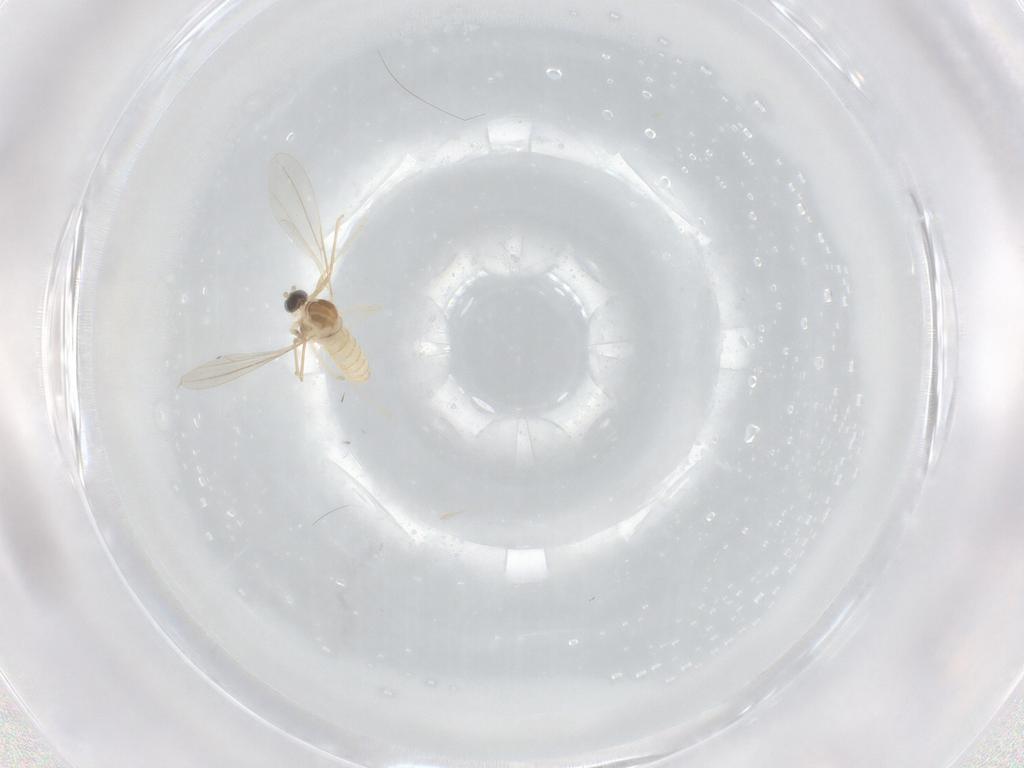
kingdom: Animalia
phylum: Arthropoda
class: Insecta
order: Diptera
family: Cecidomyiidae
